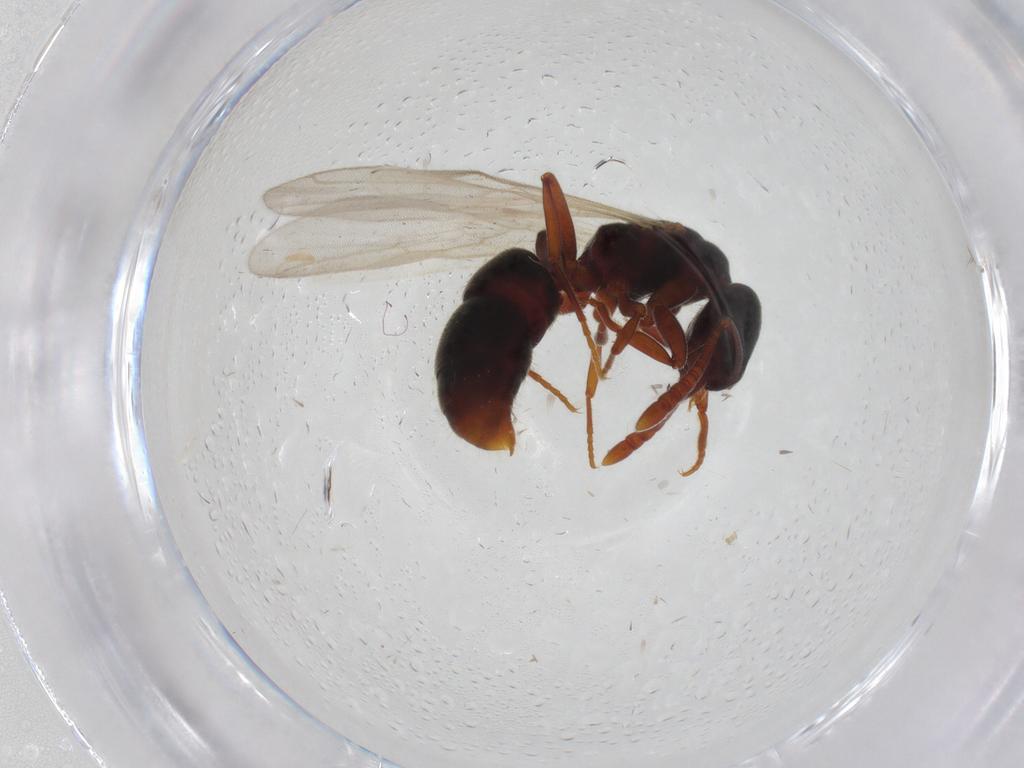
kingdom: Animalia
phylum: Arthropoda
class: Insecta
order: Hymenoptera
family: Formicidae
